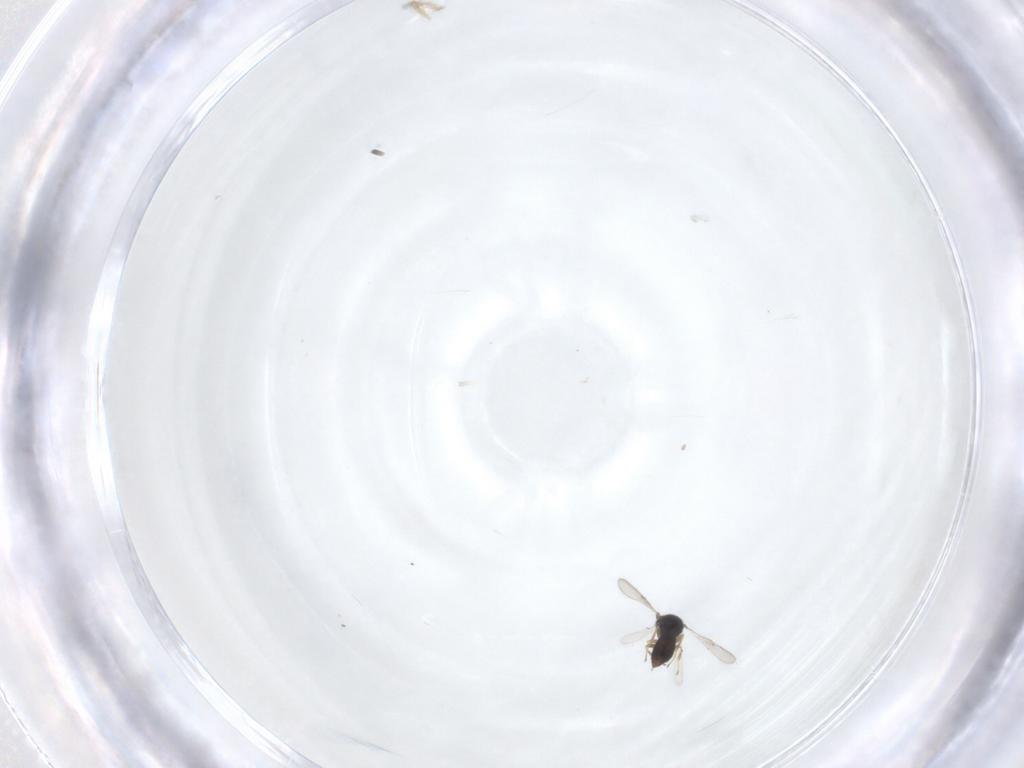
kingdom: Animalia
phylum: Arthropoda
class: Insecta
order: Hymenoptera
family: Scelionidae
